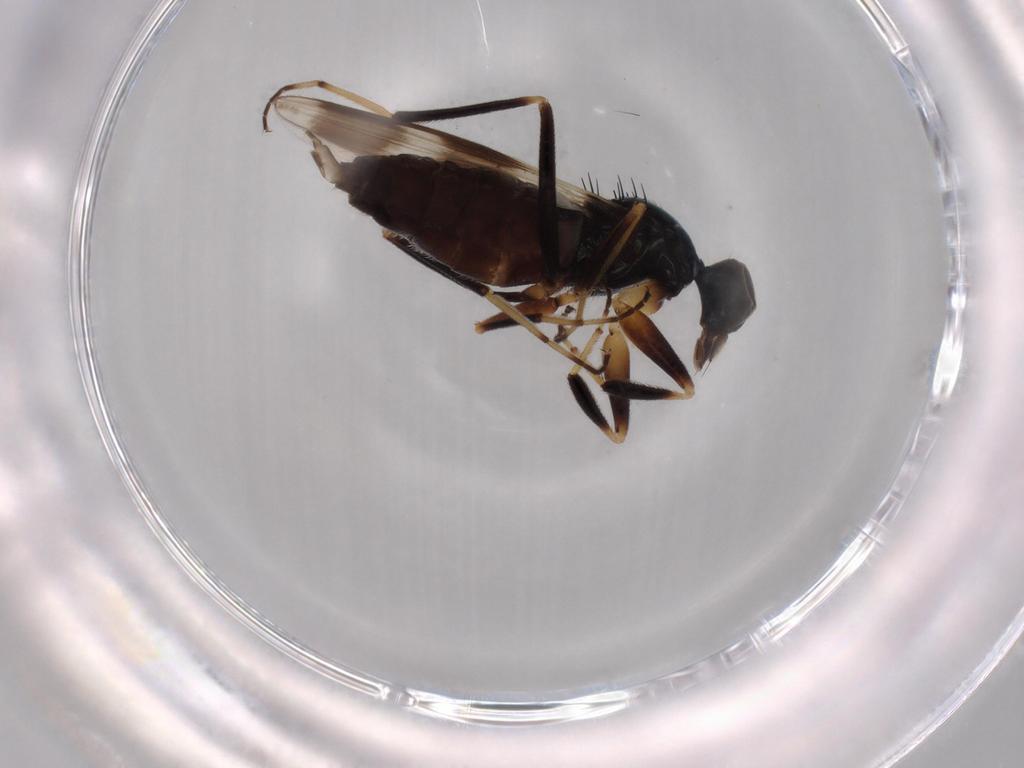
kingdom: Animalia
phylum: Arthropoda
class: Insecta
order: Diptera
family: Hybotidae
